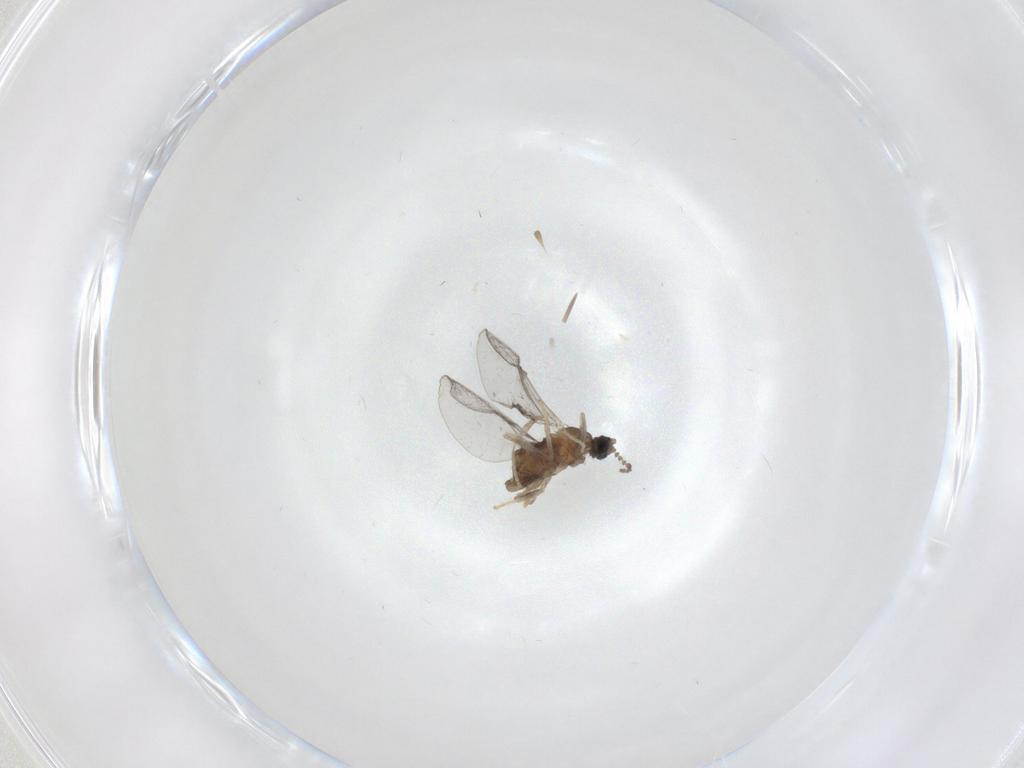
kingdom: Animalia
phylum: Arthropoda
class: Insecta
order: Diptera
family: Cecidomyiidae
